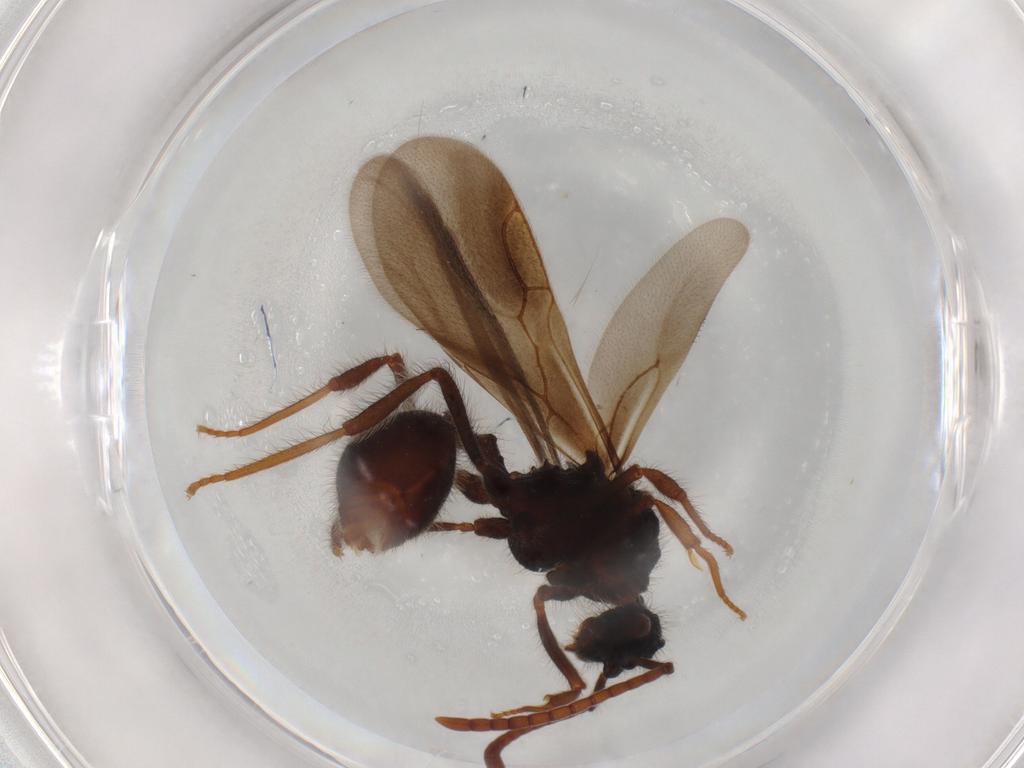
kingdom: Animalia
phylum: Arthropoda
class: Insecta
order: Hymenoptera
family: Formicidae
